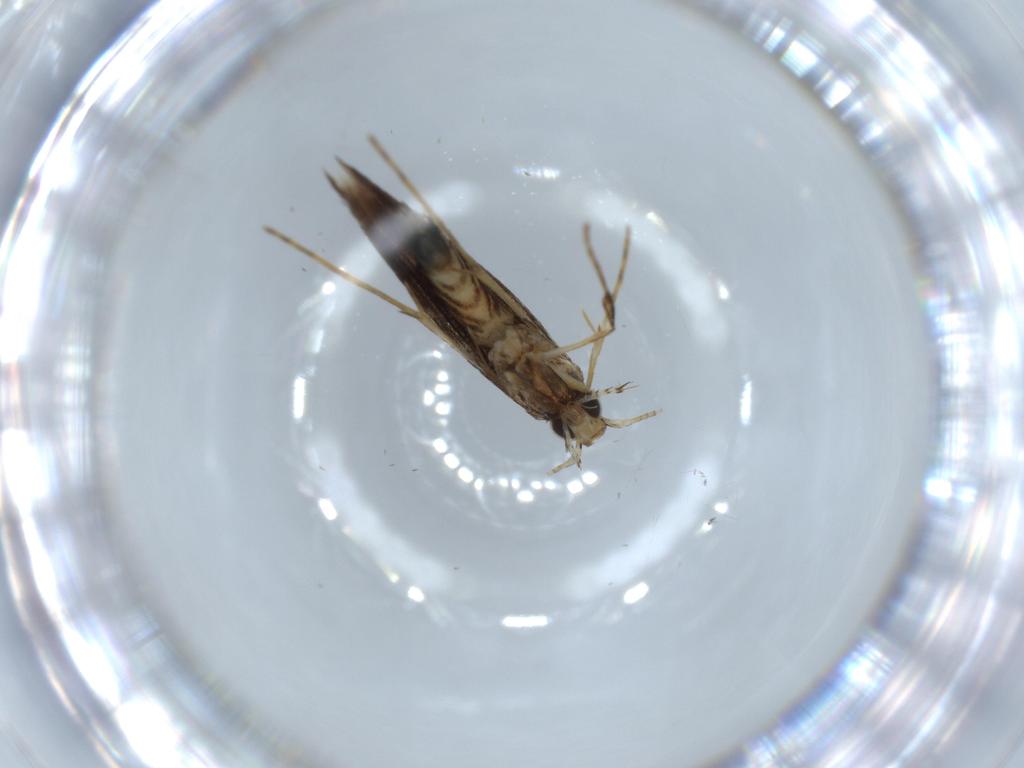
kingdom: Animalia
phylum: Arthropoda
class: Insecta
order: Lepidoptera
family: Gracillariidae
